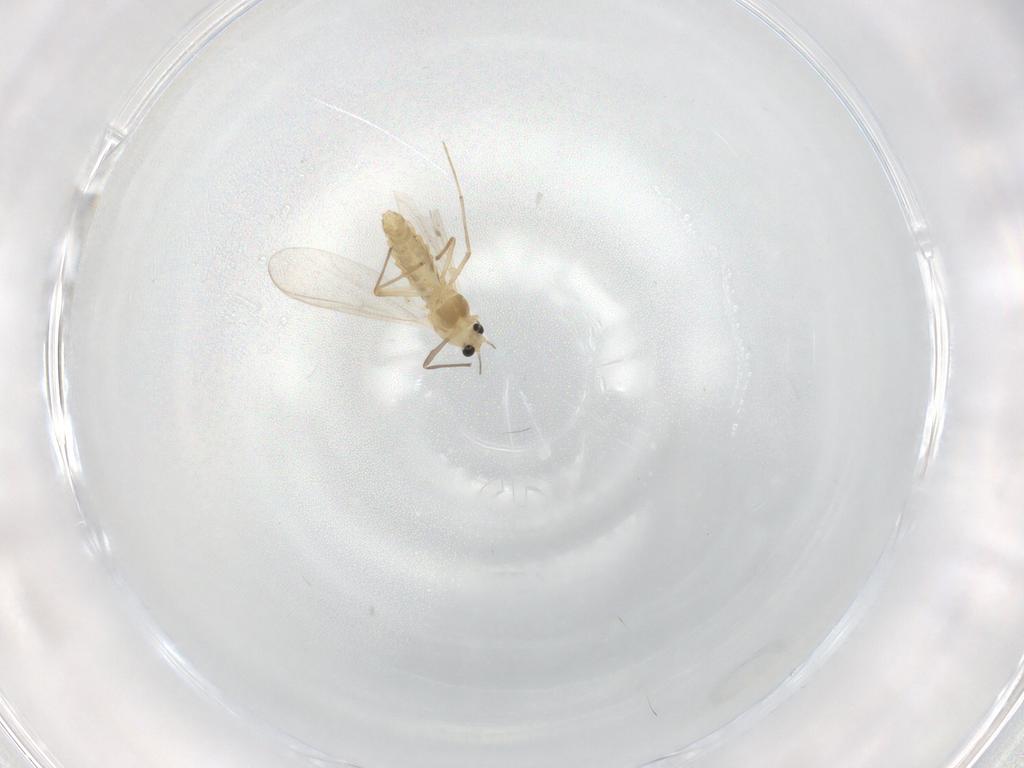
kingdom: Animalia
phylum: Arthropoda
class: Insecta
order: Diptera
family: Chironomidae
